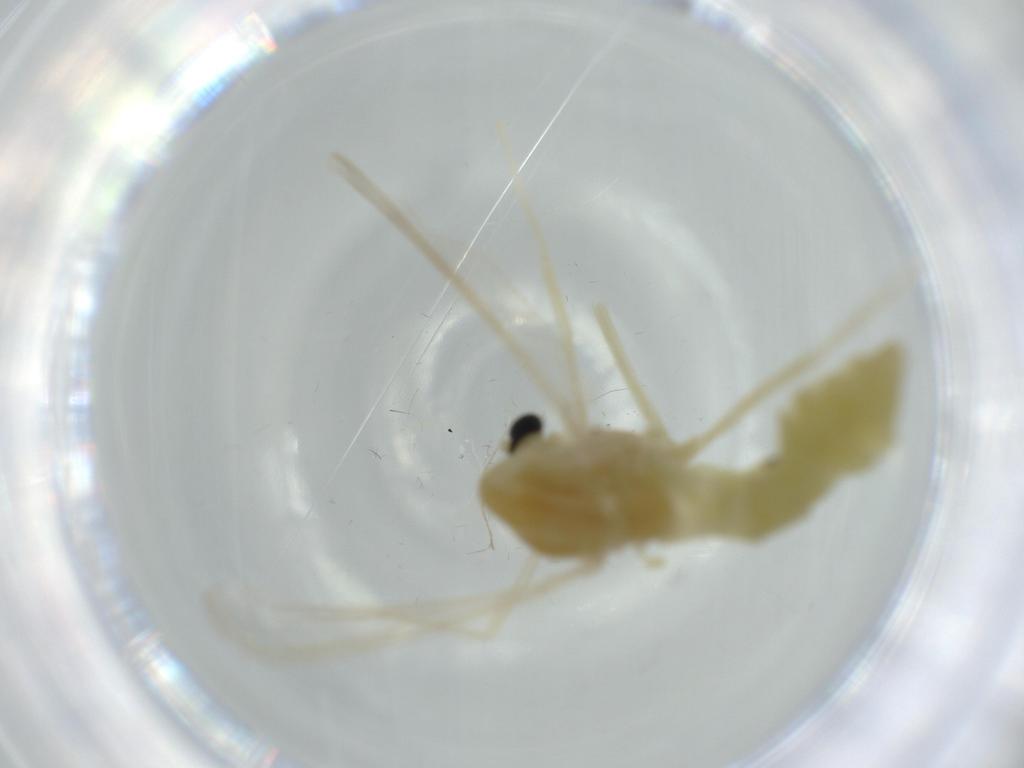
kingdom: Animalia
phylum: Arthropoda
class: Insecta
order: Diptera
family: Chironomidae
